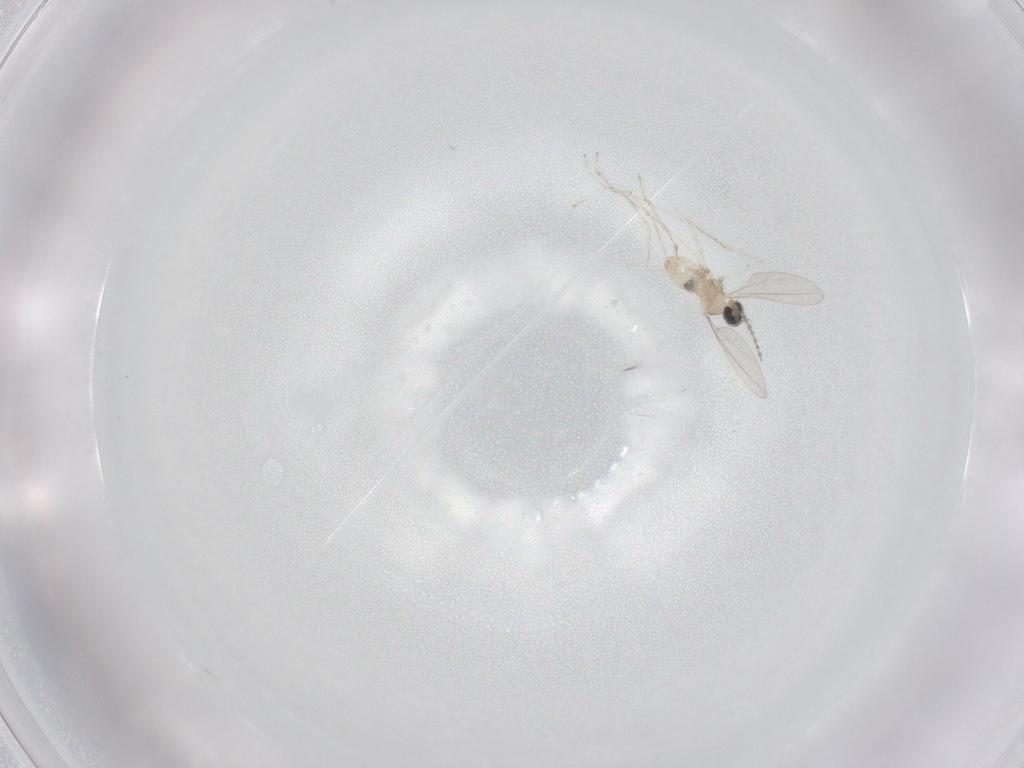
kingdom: Animalia
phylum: Arthropoda
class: Insecta
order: Diptera
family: Cecidomyiidae
